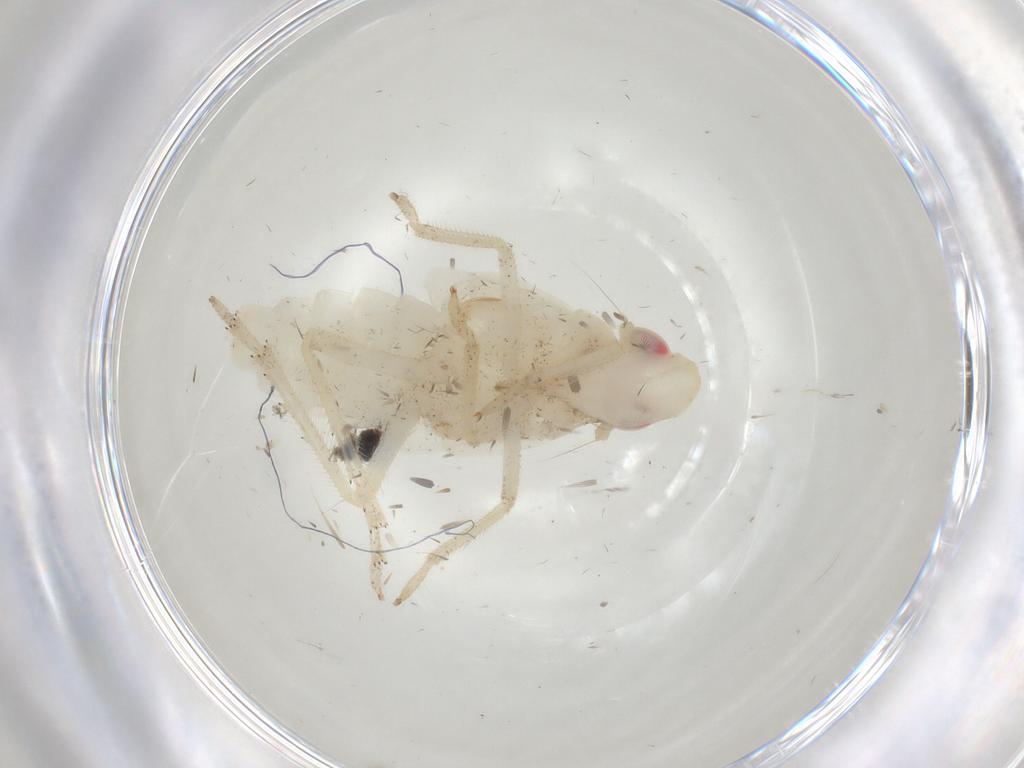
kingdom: Animalia
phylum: Arthropoda
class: Insecta
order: Hemiptera
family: Tropiduchidae
